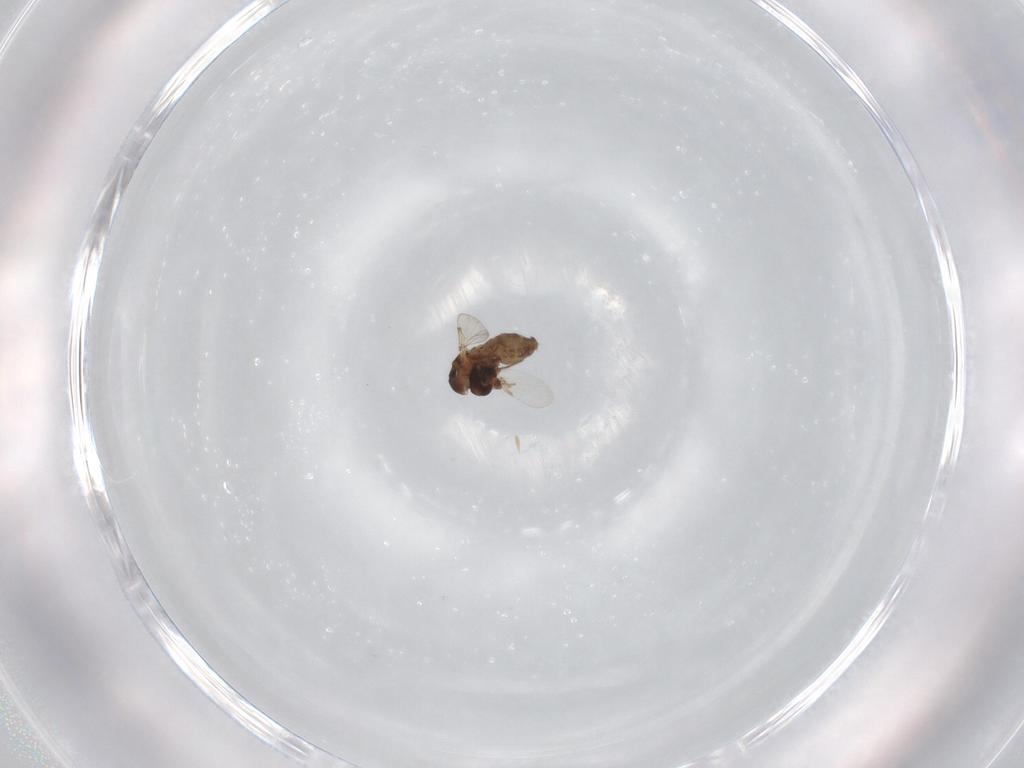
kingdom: Animalia
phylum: Arthropoda
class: Insecta
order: Diptera
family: Ceratopogonidae
